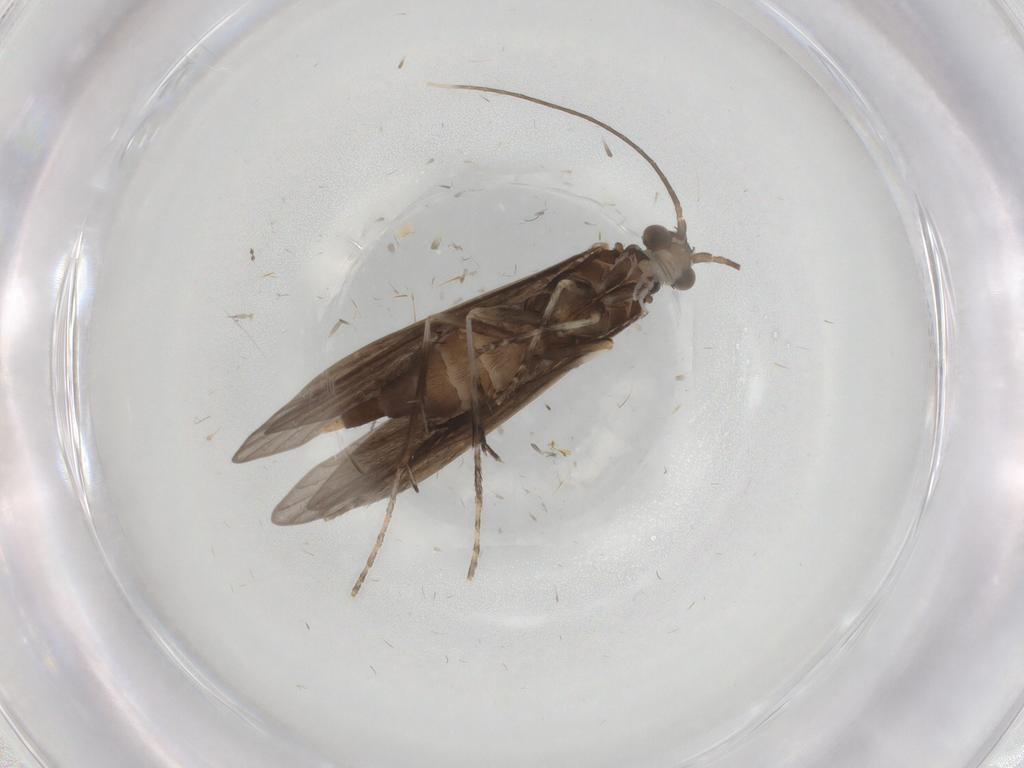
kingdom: Animalia
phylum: Arthropoda
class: Insecta
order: Trichoptera
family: Xiphocentronidae
